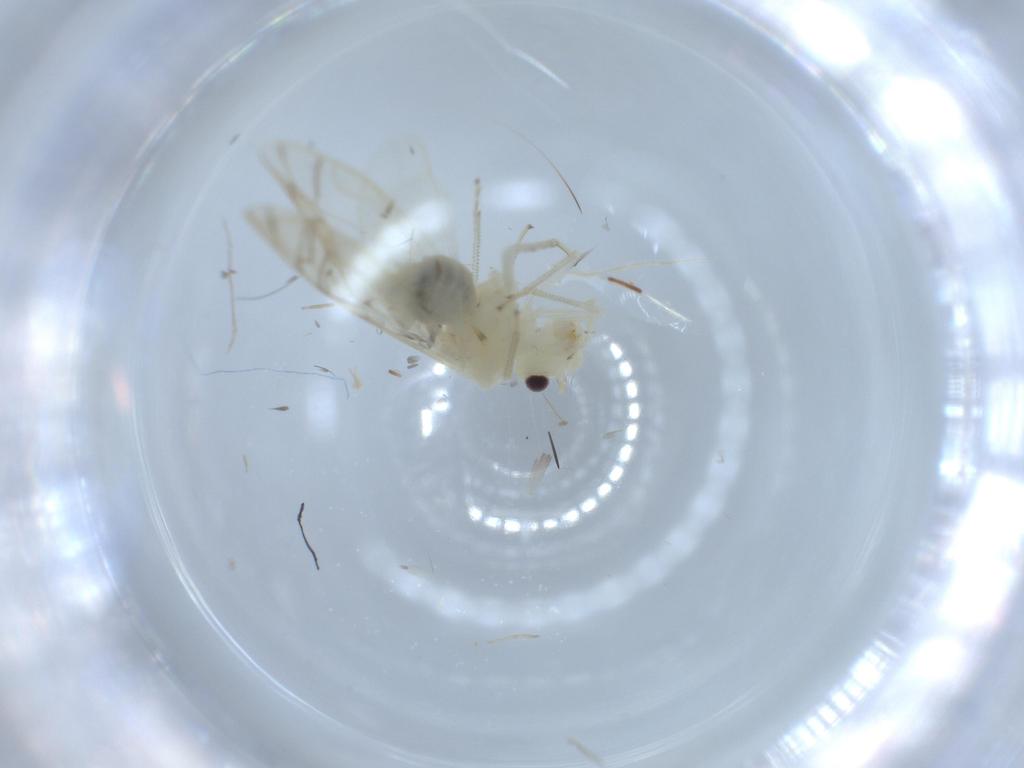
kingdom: Animalia
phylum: Arthropoda
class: Insecta
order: Psocodea
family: Caeciliusidae
